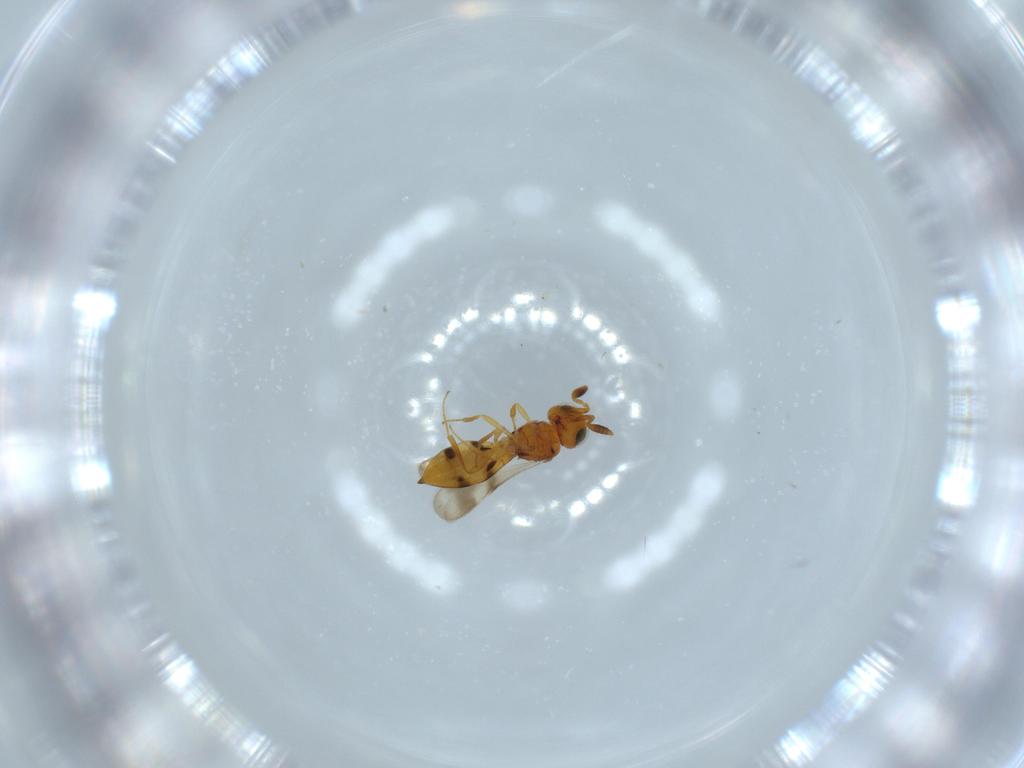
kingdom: Animalia
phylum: Arthropoda
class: Insecta
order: Hymenoptera
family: Scelionidae
